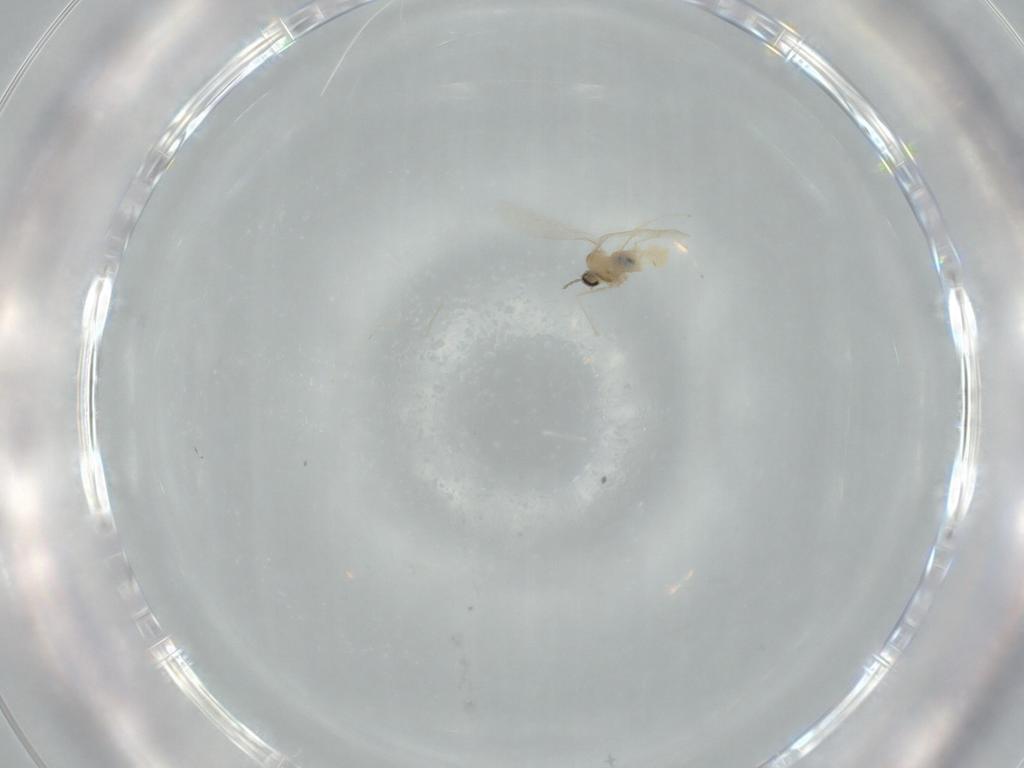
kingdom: Animalia
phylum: Arthropoda
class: Insecta
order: Diptera
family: Cecidomyiidae
